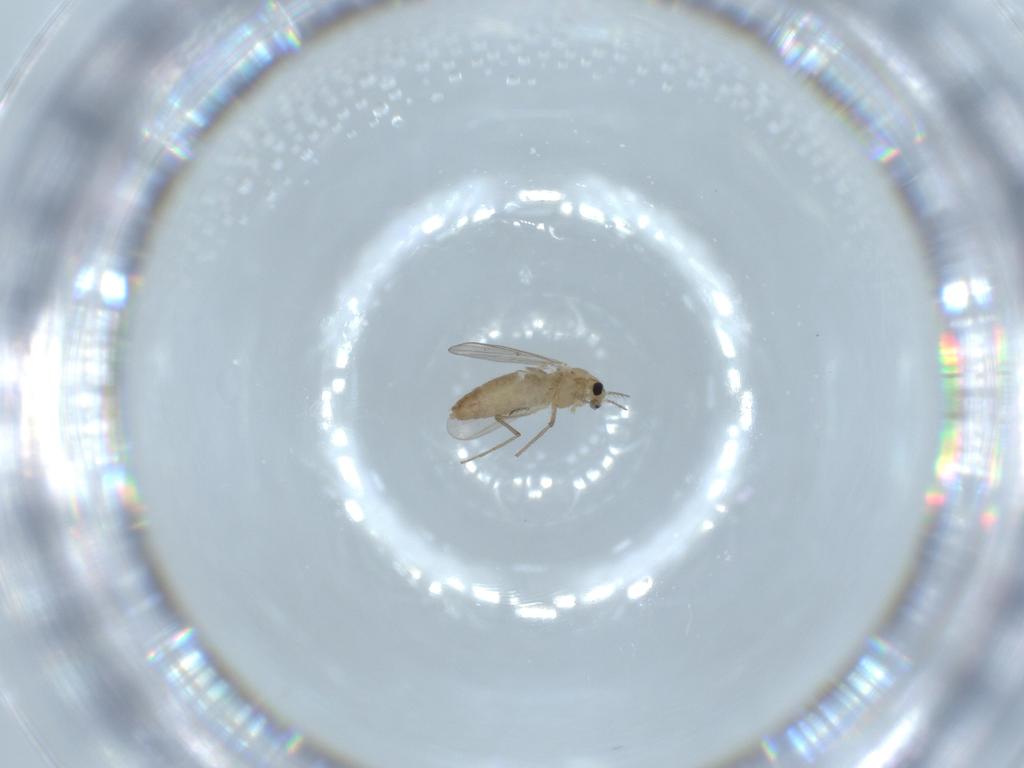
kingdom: Animalia
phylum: Arthropoda
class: Insecta
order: Diptera
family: Chironomidae
